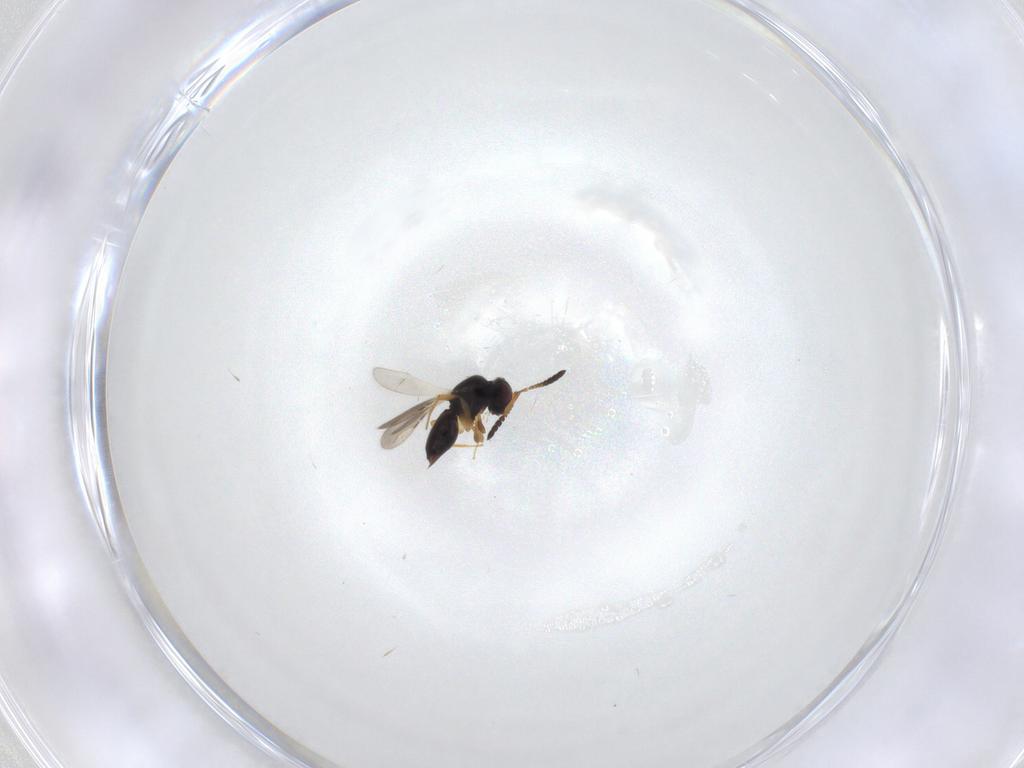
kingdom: Animalia
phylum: Arthropoda
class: Insecta
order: Hymenoptera
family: Ceraphronidae
